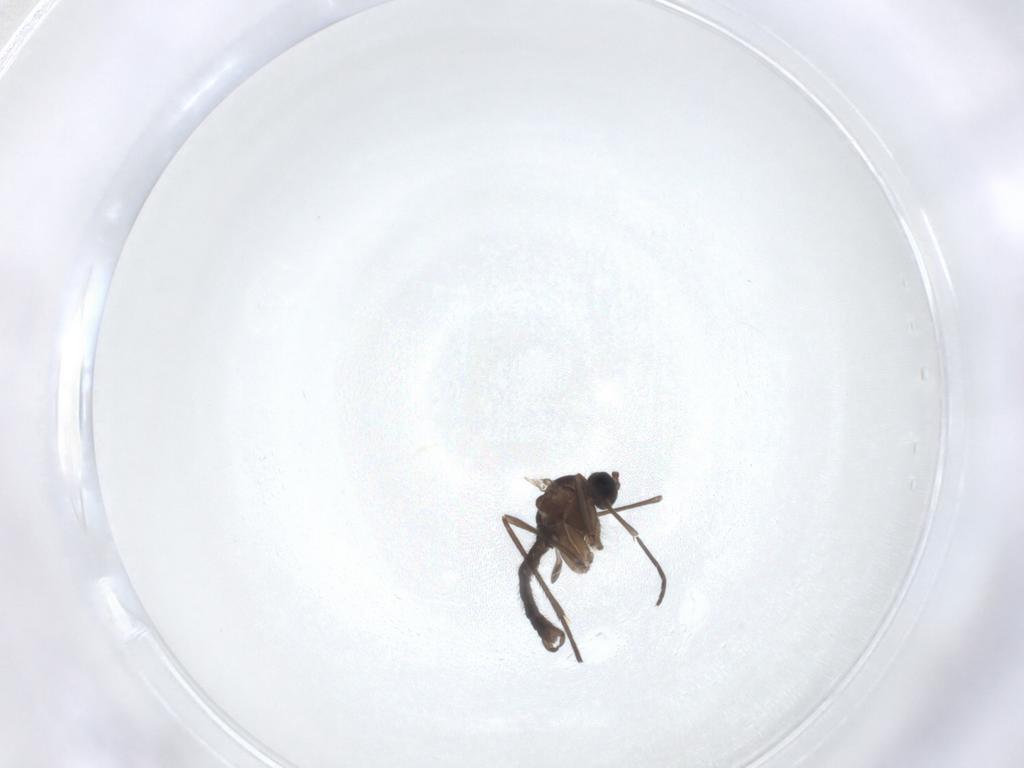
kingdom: Animalia
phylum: Arthropoda
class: Insecta
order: Diptera
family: Sciaridae
